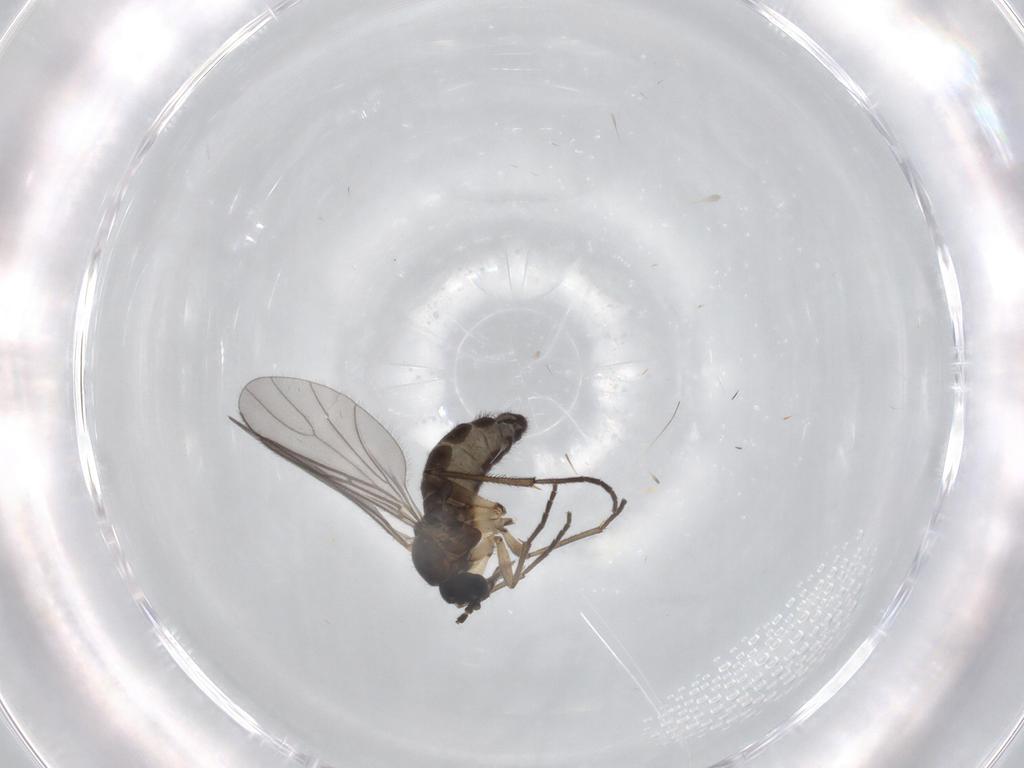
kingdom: Animalia
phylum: Arthropoda
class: Insecta
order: Diptera
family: Sciaridae
